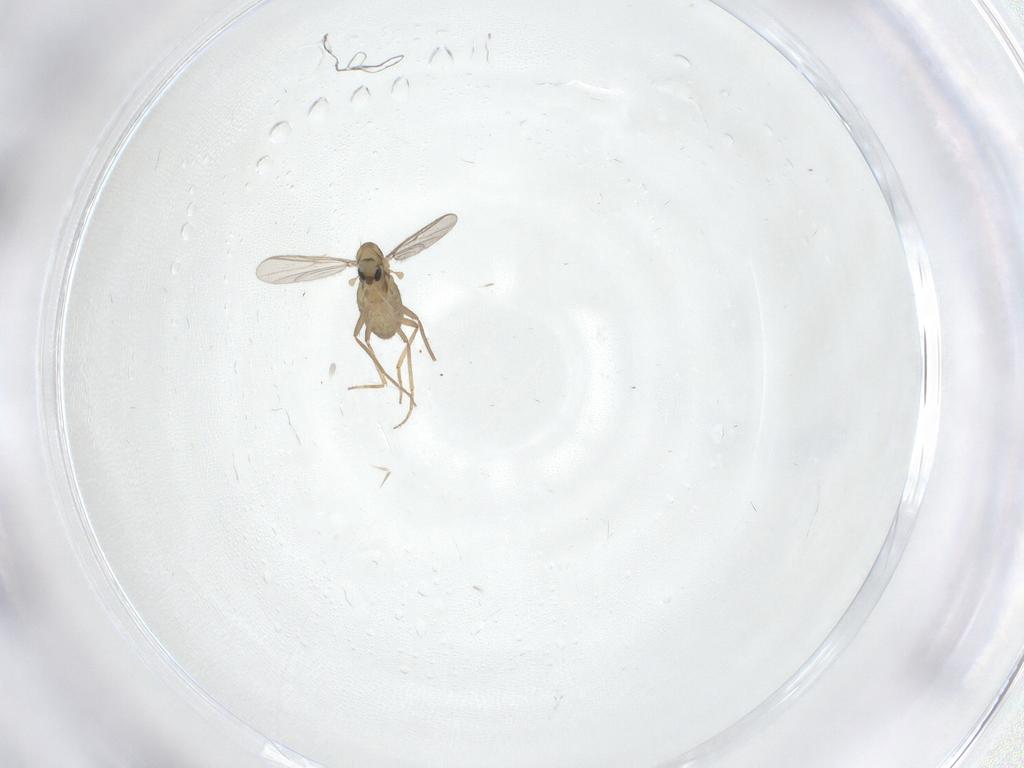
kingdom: Animalia
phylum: Arthropoda
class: Insecta
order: Diptera
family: Chironomidae
